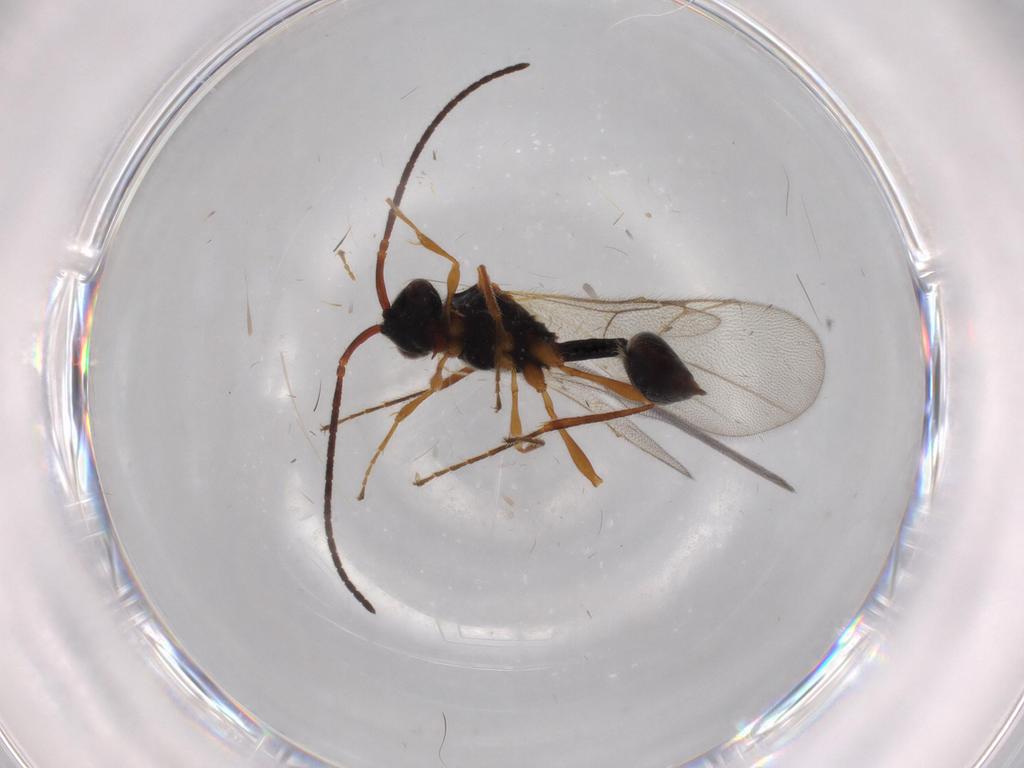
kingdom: Animalia
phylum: Arthropoda
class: Insecta
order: Hymenoptera
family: Diapriidae
